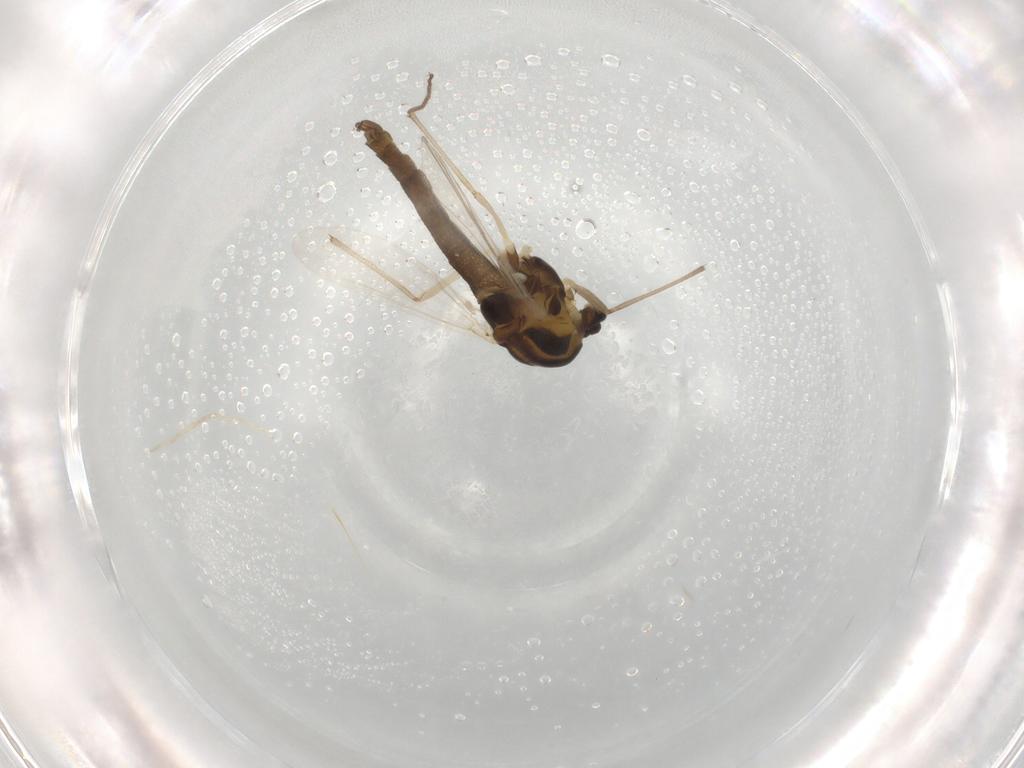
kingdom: Animalia
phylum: Arthropoda
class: Insecta
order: Diptera
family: Chironomidae
